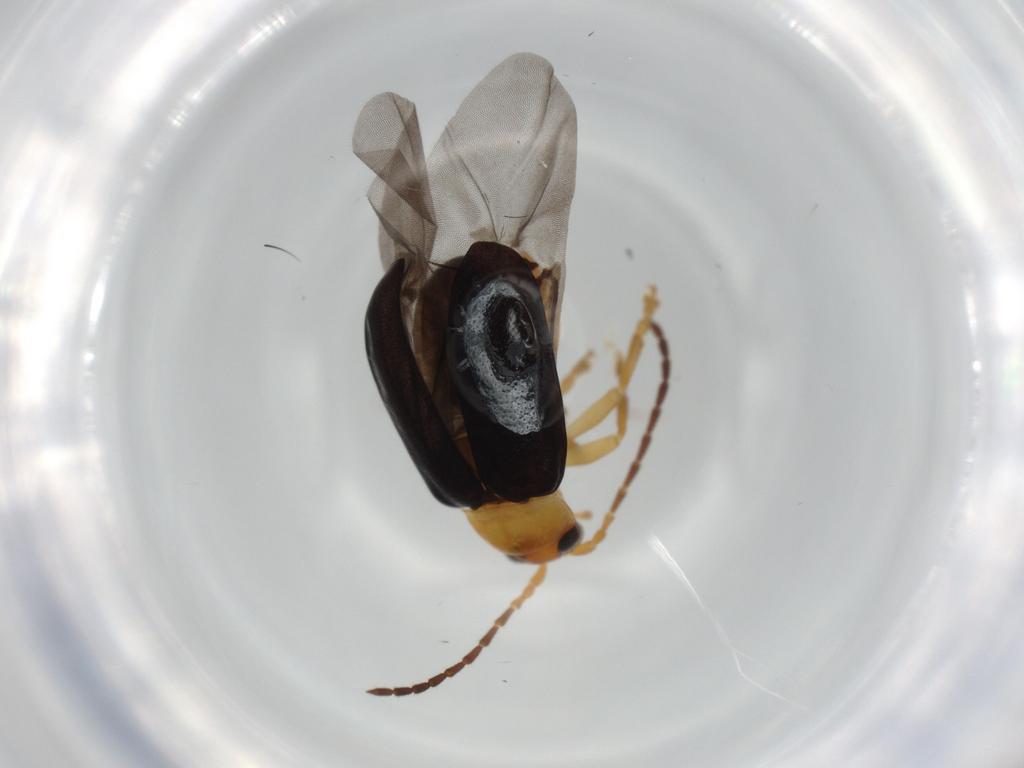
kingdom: Animalia
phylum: Arthropoda
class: Insecta
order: Coleoptera
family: Chrysomelidae
